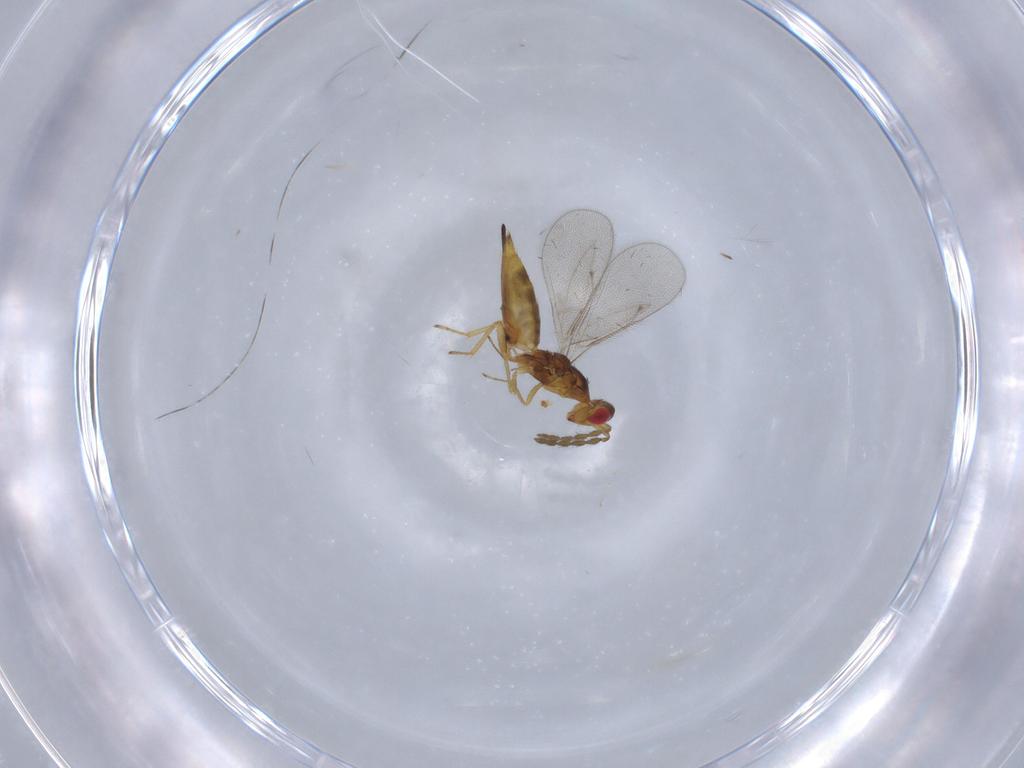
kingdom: Animalia
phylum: Arthropoda
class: Insecta
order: Hymenoptera
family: Eulophidae
